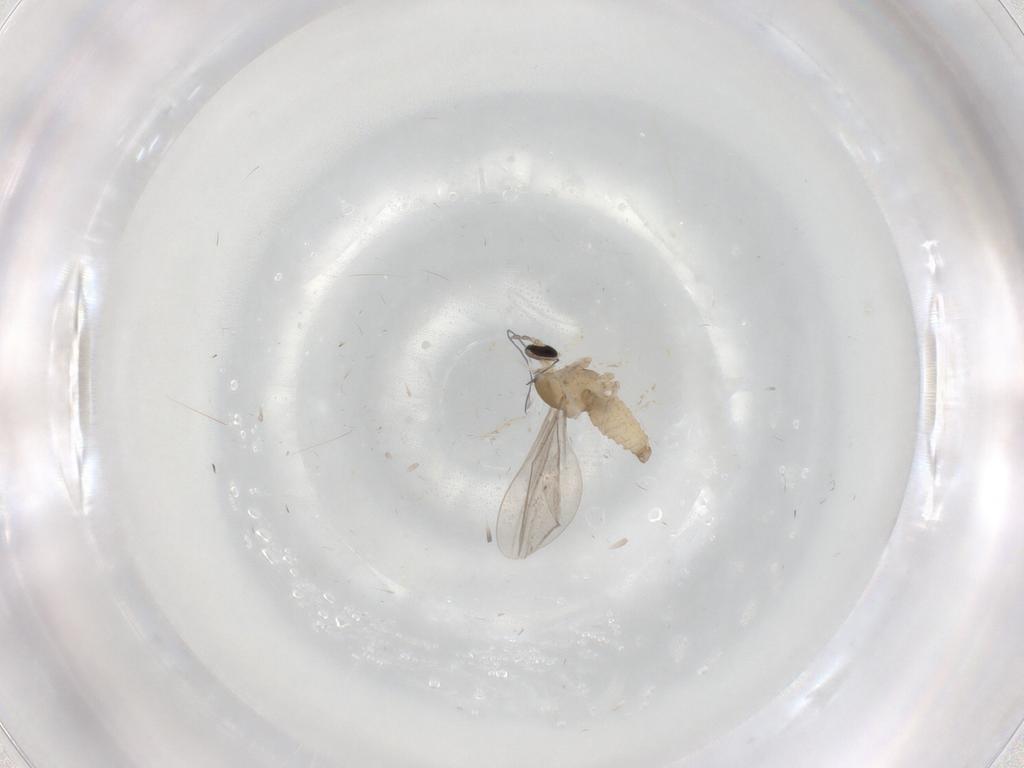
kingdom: Animalia
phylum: Arthropoda
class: Insecta
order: Diptera
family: Cecidomyiidae
